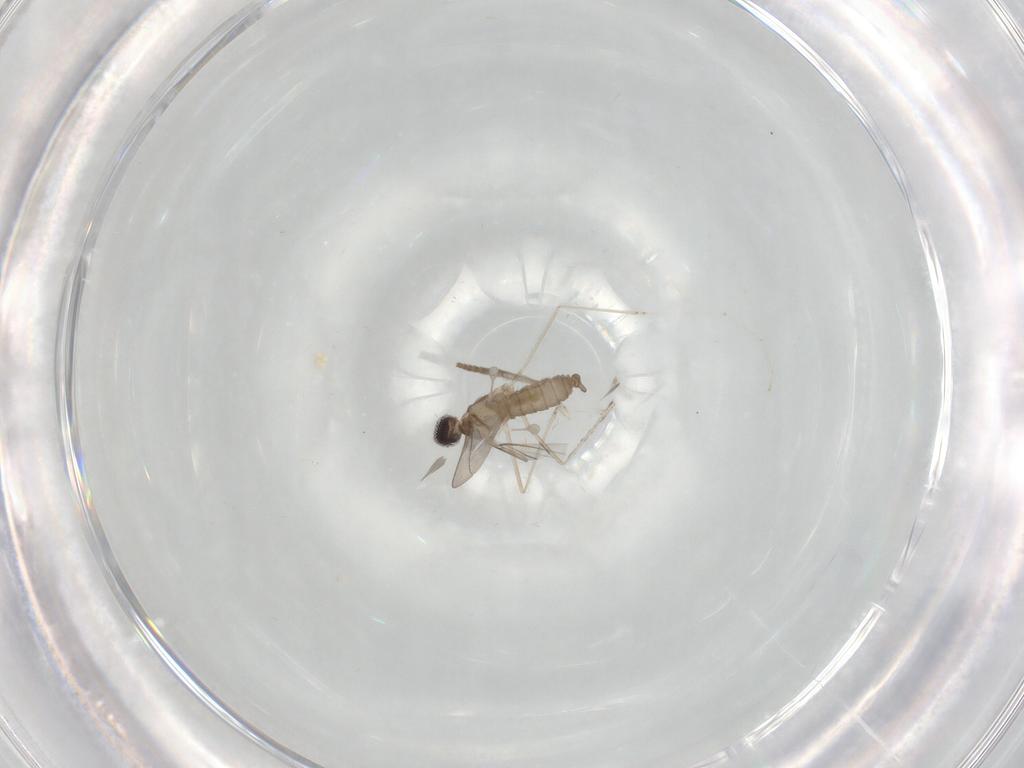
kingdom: Animalia
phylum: Arthropoda
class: Insecta
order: Diptera
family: Cecidomyiidae
